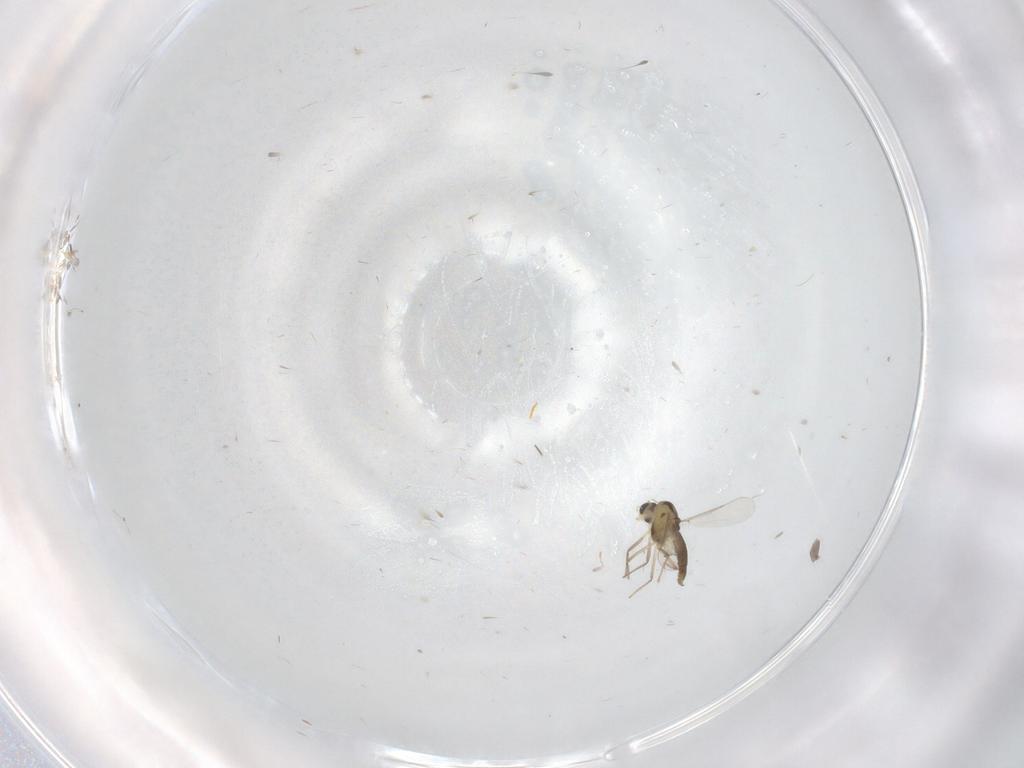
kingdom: Animalia
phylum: Arthropoda
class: Insecta
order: Diptera
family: Chironomidae
